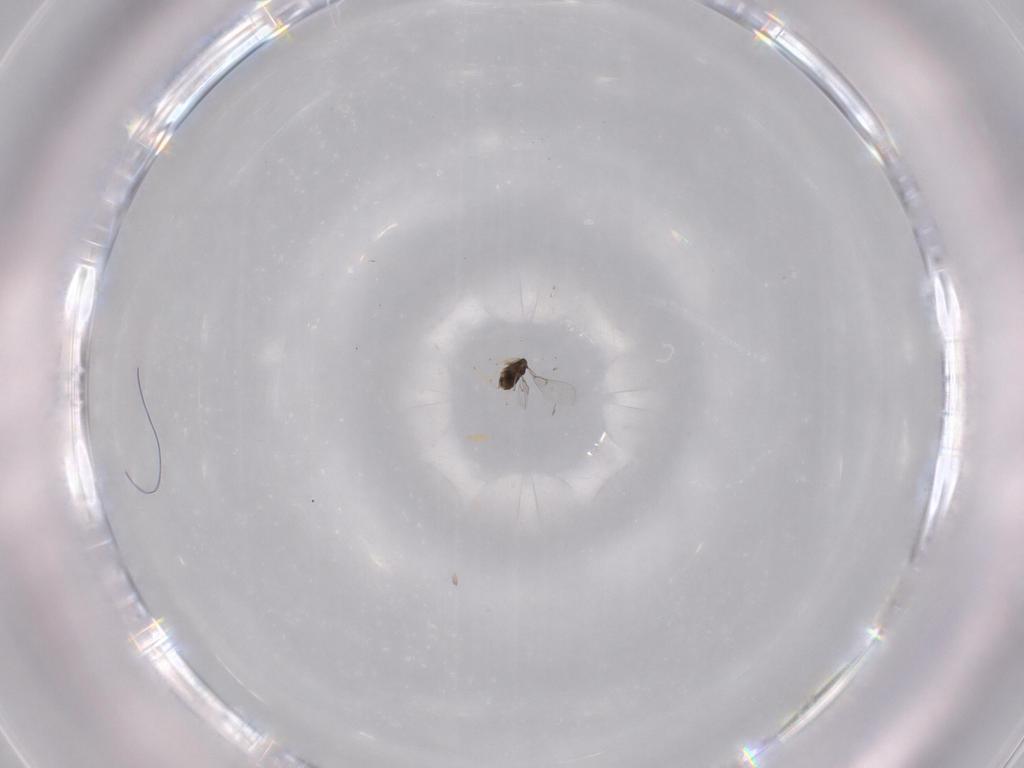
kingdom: Animalia
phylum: Arthropoda
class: Insecta
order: Hymenoptera
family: Trichogrammatidae
